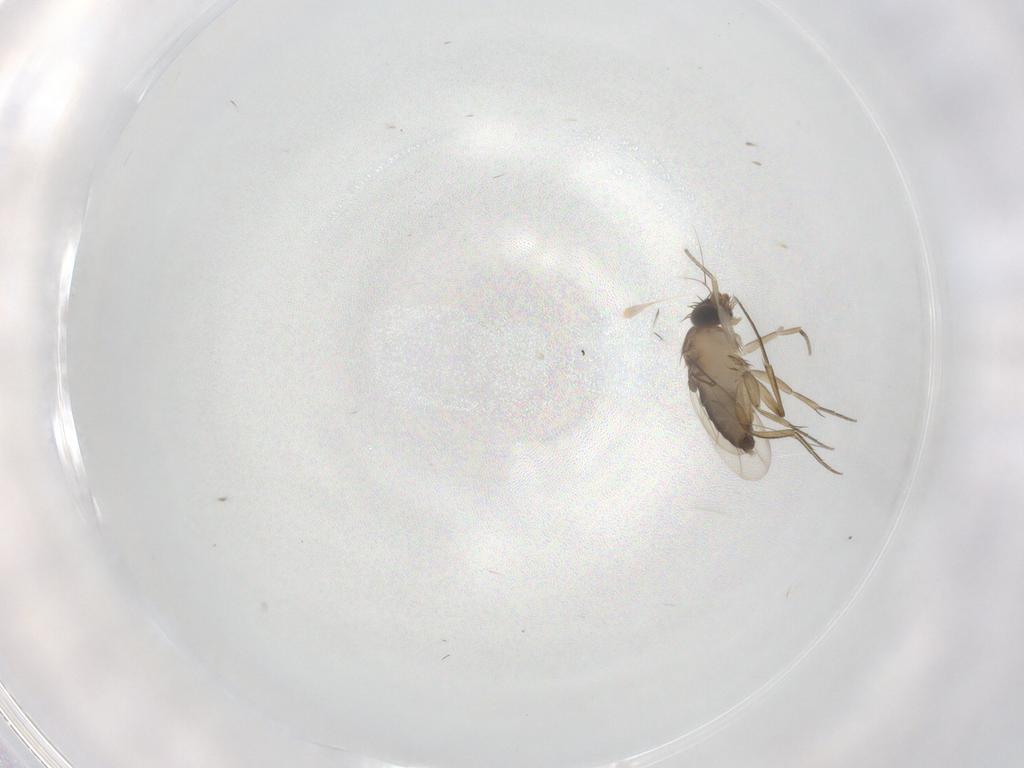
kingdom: Animalia
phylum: Arthropoda
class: Insecta
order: Diptera
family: Phoridae
